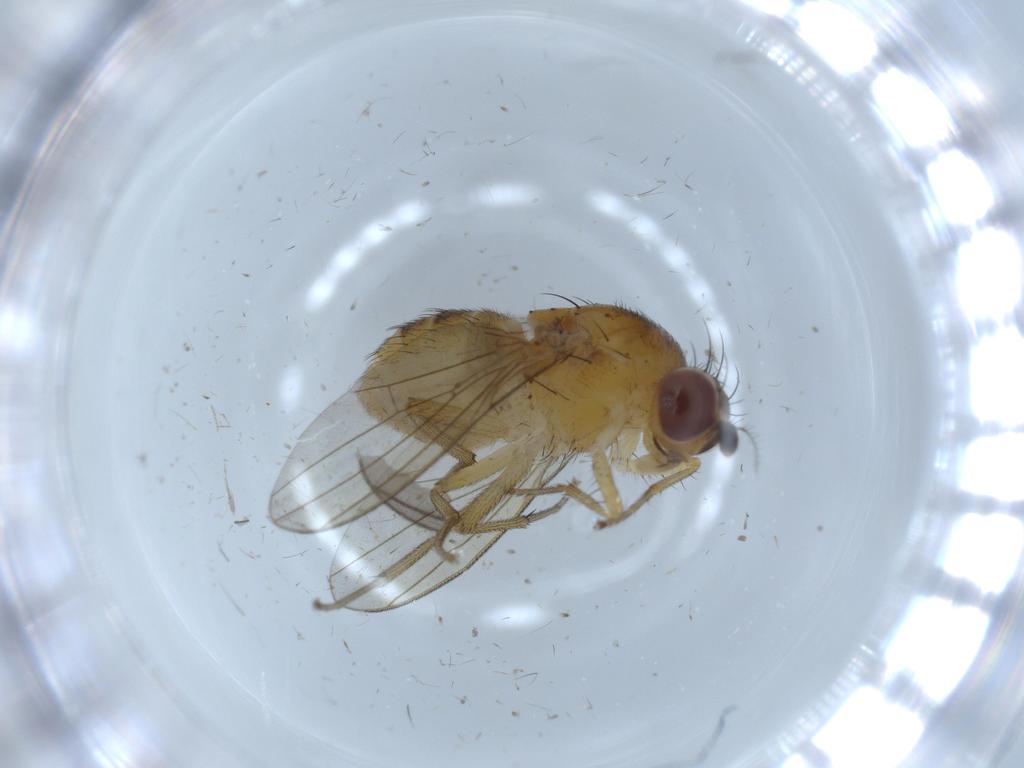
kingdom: Animalia
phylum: Arthropoda
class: Insecta
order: Diptera
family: Lauxaniidae
